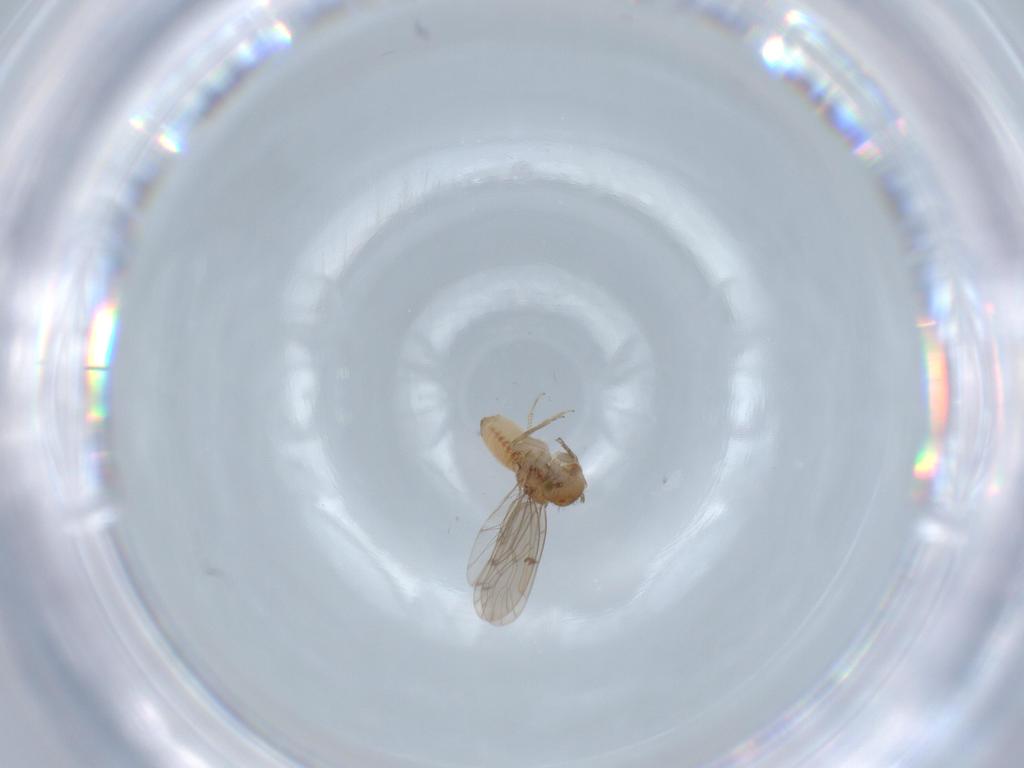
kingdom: Animalia
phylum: Arthropoda
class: Insecta
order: Psocodea
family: Ectopsocidae
